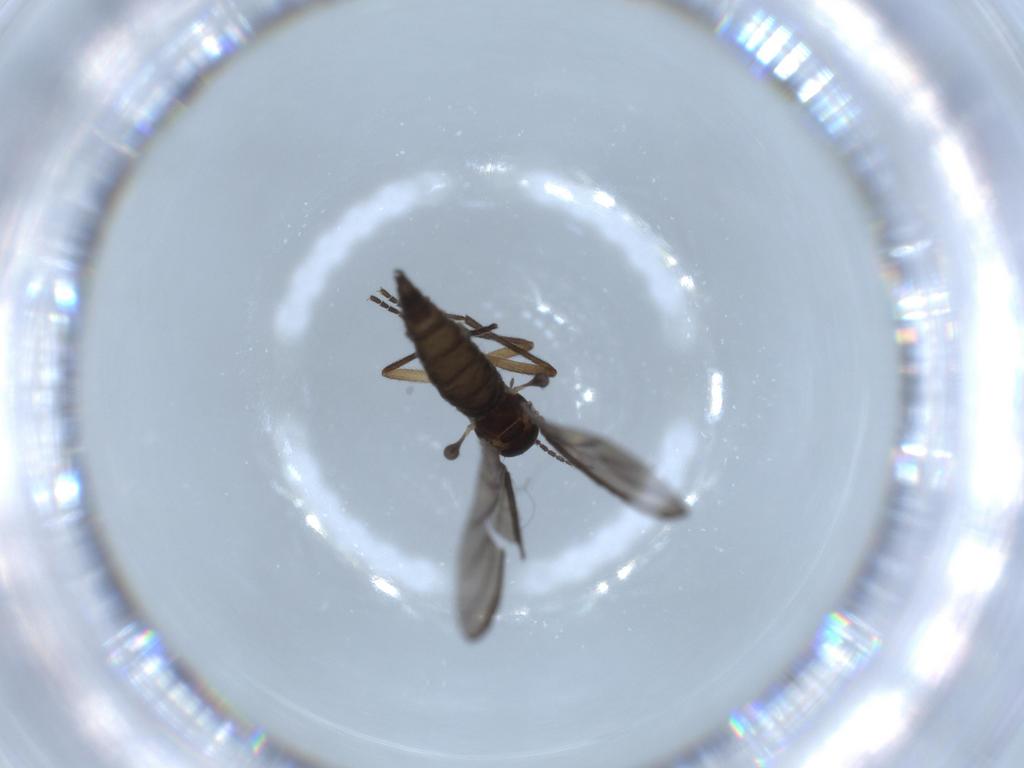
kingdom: Animalia
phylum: Arthropoda
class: Insecta
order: Diptera
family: Sciaridae
